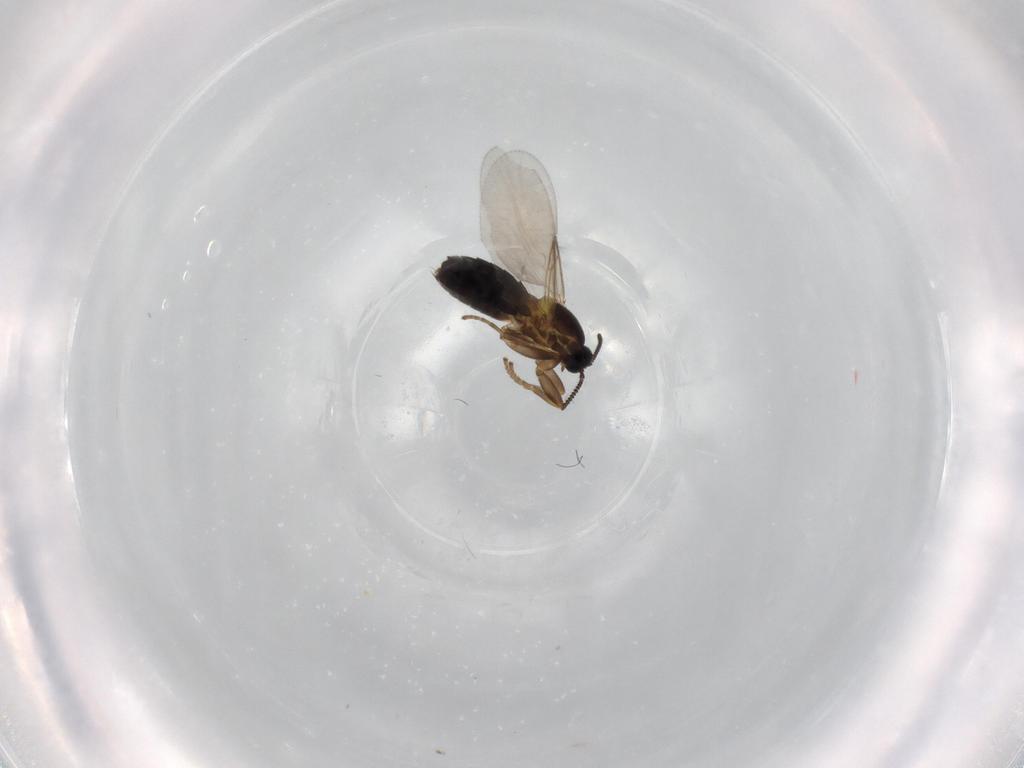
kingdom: Animalia
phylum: Arthropoda
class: Insecta
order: Diptera
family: Scatopsidae
